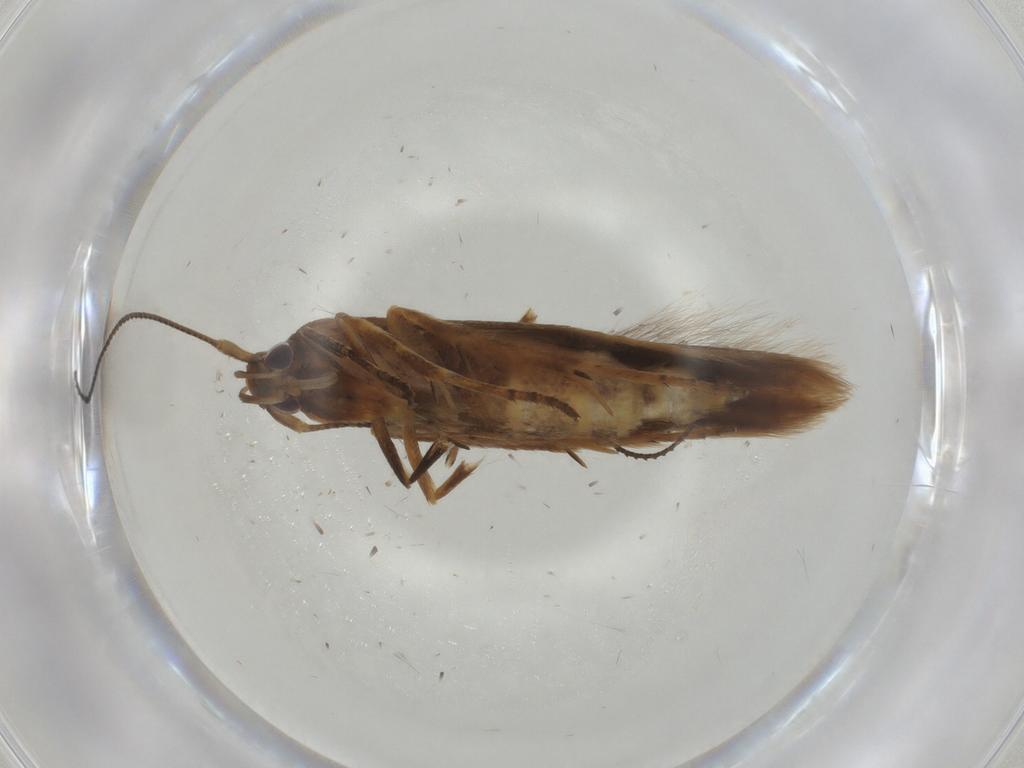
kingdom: Animalia
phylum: Arthropoda
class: Insecta
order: Lepidoptera
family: Elachistidae
